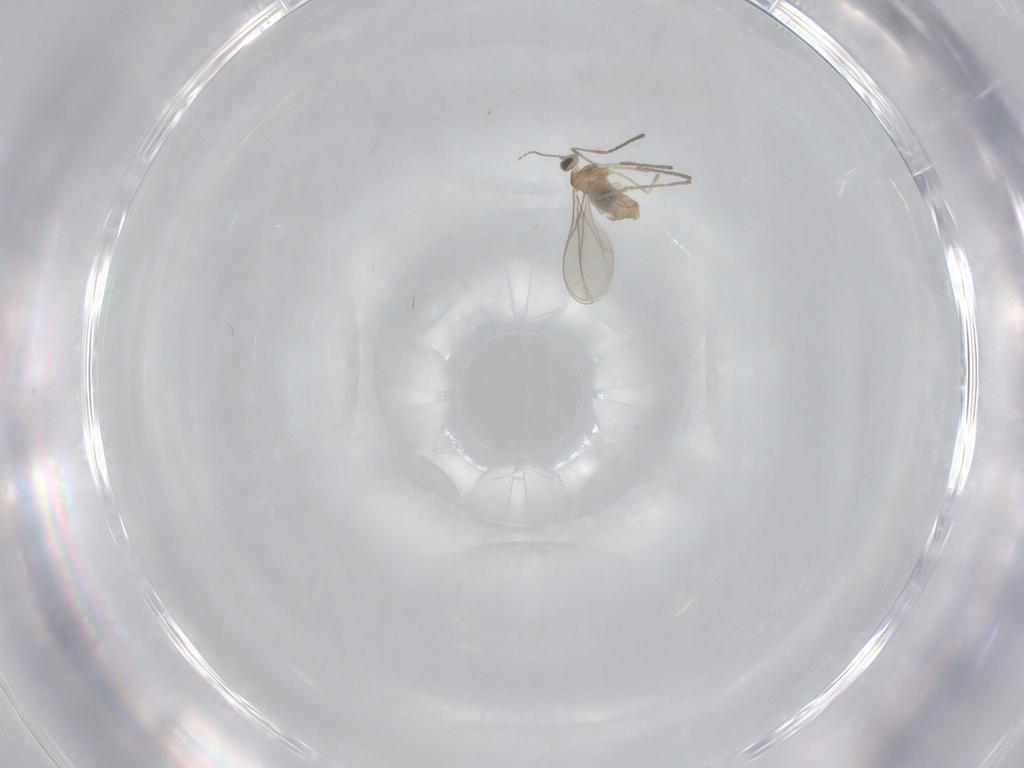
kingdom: Animalia
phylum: Arthropoda
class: Insecta
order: Diptera
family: Cecidomyiidae
